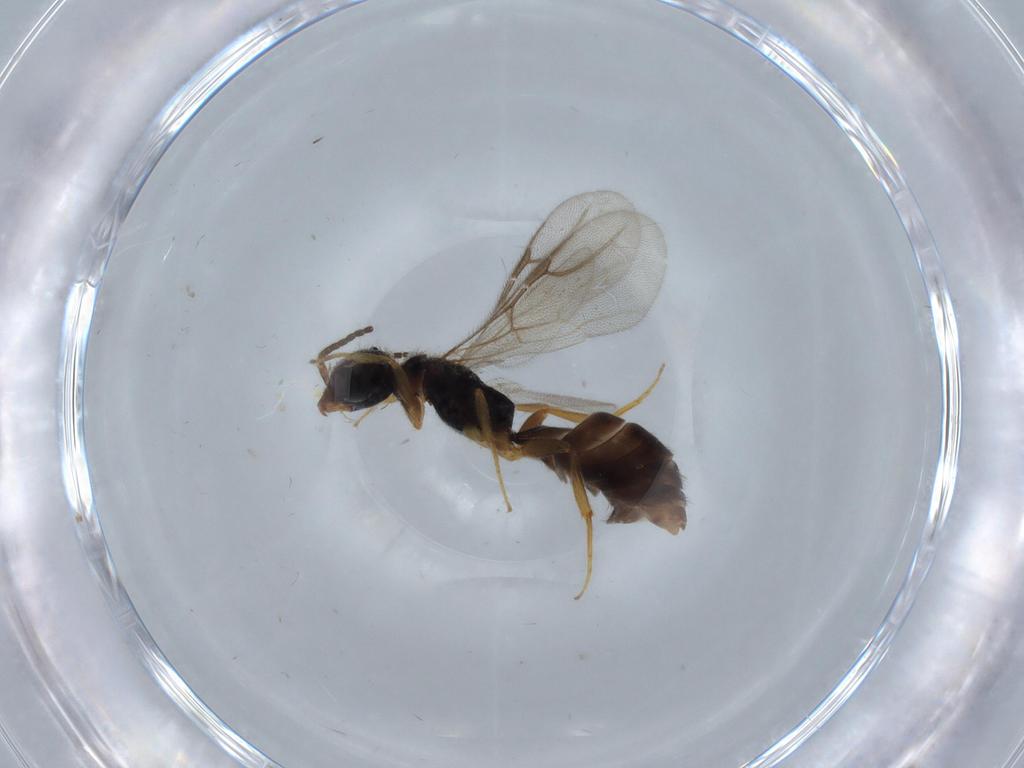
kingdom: Animalia
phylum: Arthropoda
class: Insecta
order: Hymenoptera
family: Bethylidae
